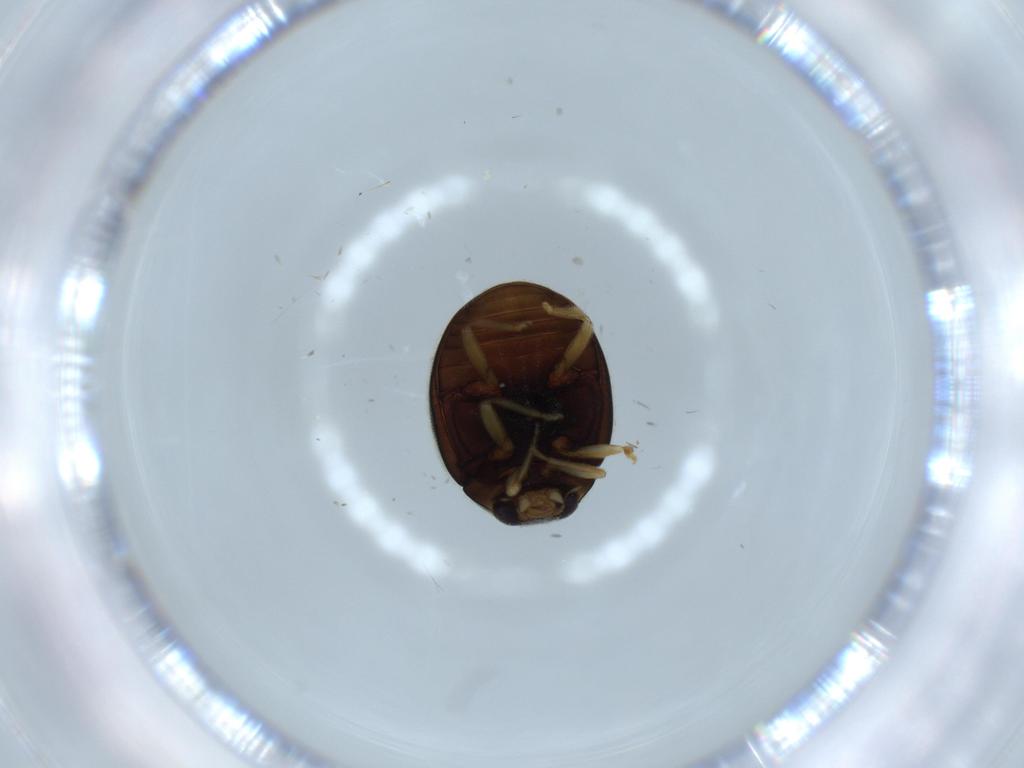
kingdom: Animalia
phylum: Arthropoda
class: Insecta
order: Coleoptera
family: Coccinellidae
